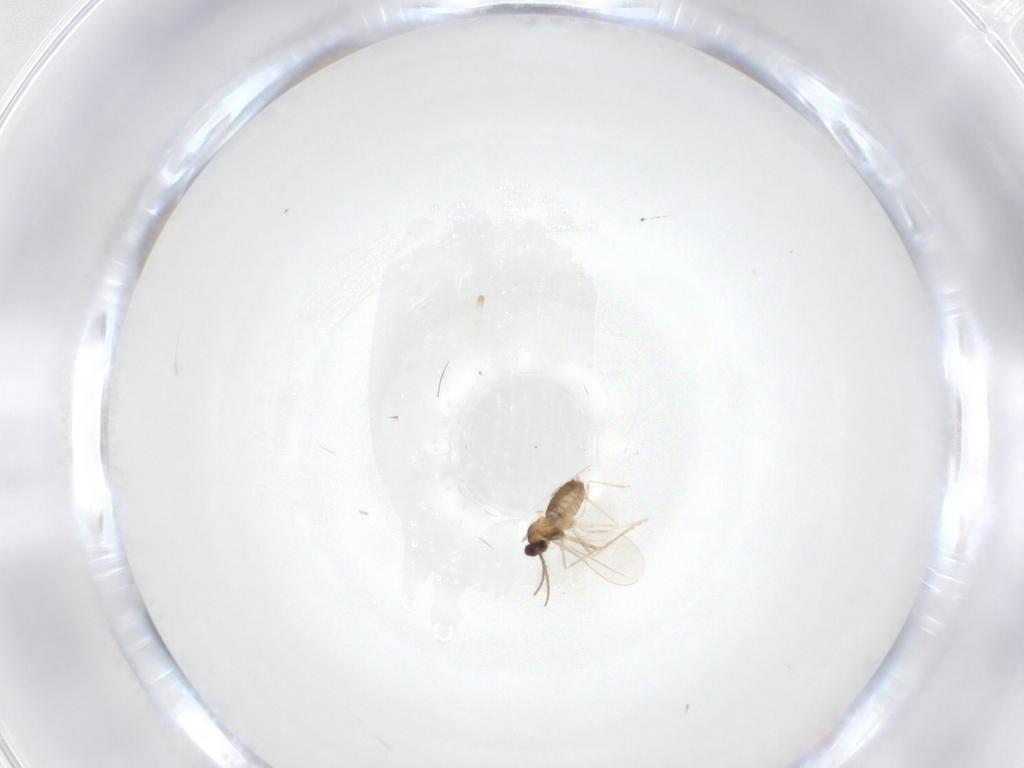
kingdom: Animalia
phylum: Arthropoda
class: Insecta
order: Diptera
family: Cecidomyiidae
